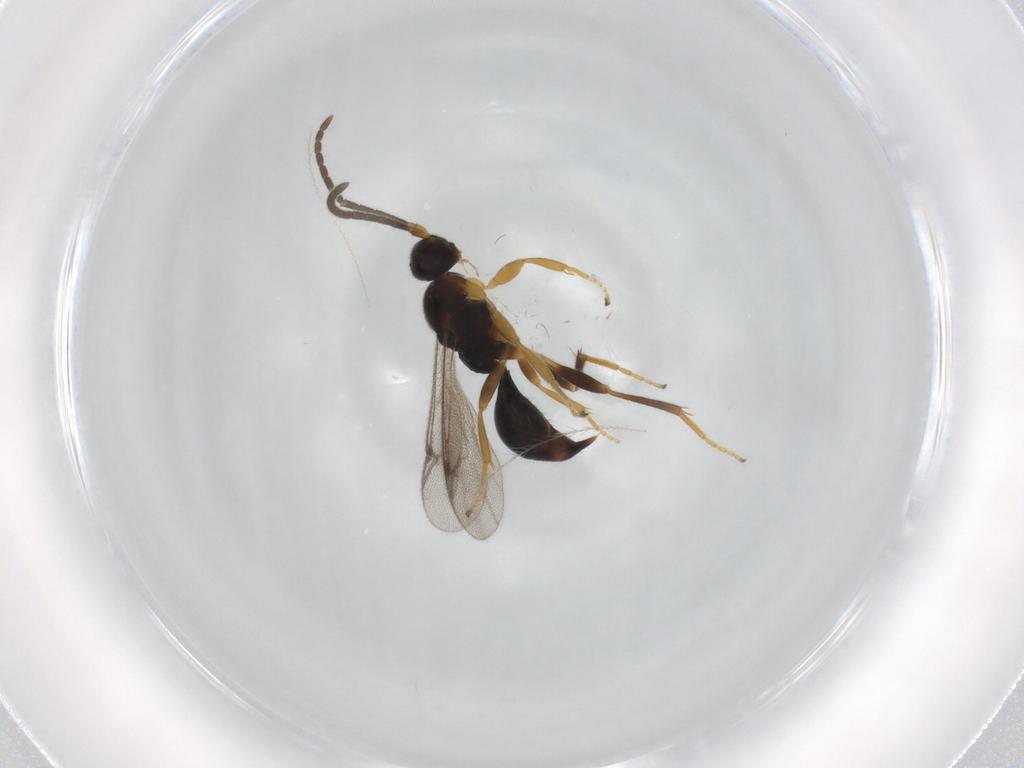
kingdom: Animalia
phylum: Arthropoda
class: Insecta
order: Hymenoptera
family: Proctotrupidae
